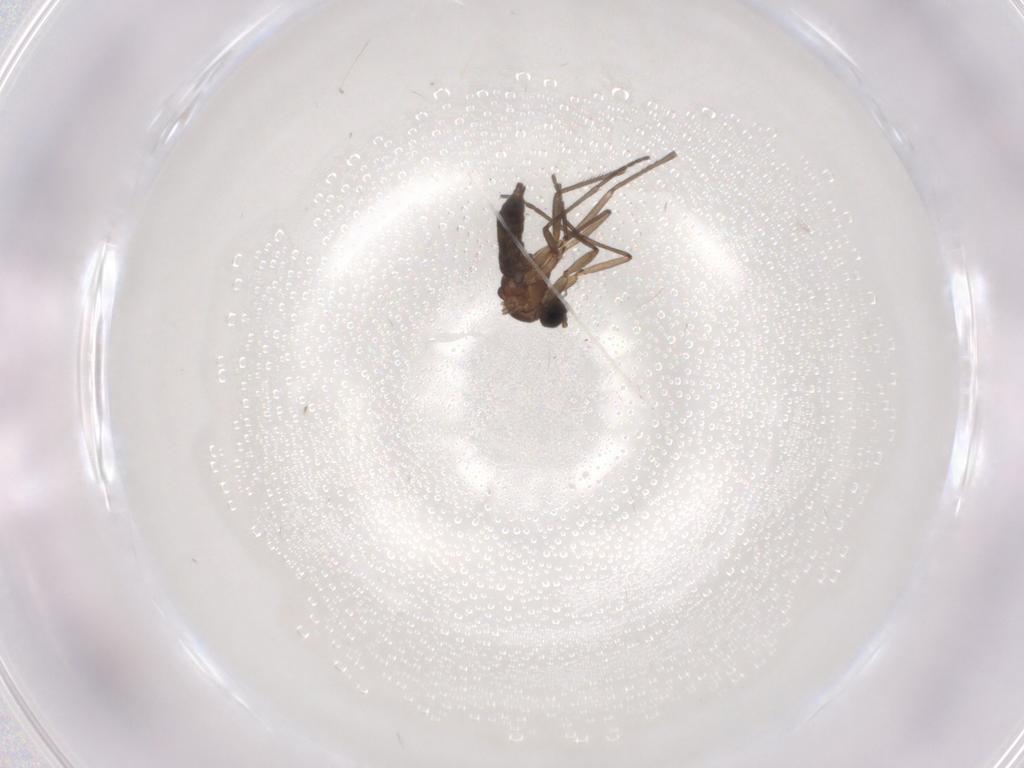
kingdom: Animalia
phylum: Arthropoda
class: Insecta
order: Diptera
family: Sciaridae
